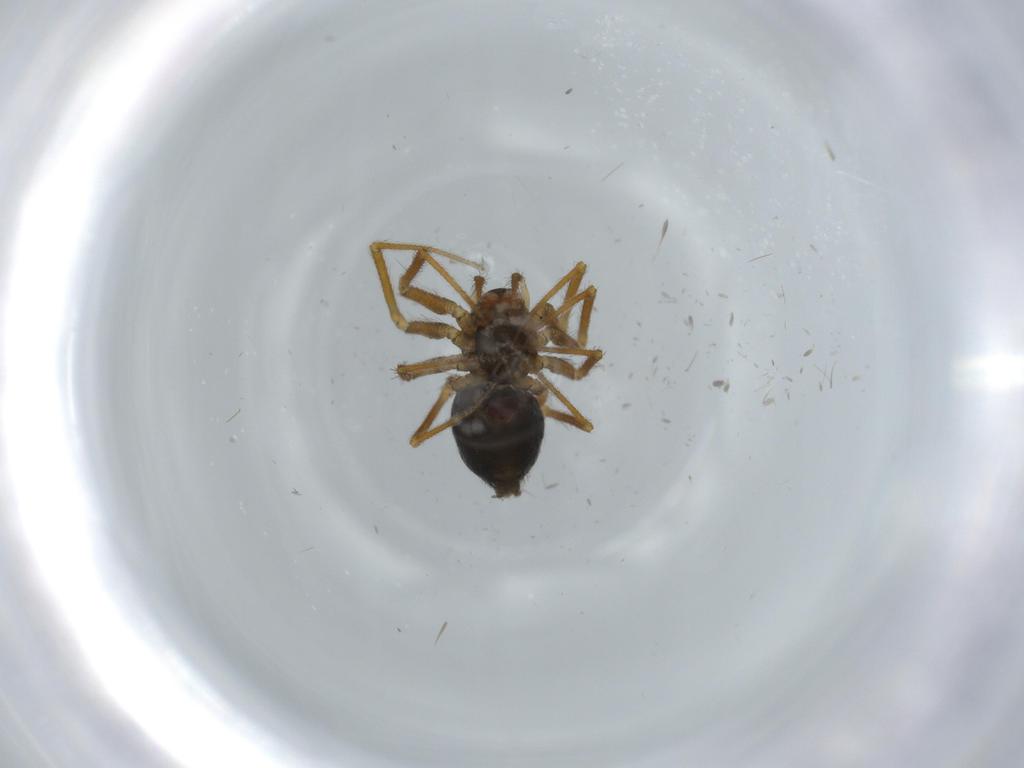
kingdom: Animalia
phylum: Arthropoda
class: Arachnida
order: Araneae
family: Linyphiidae
